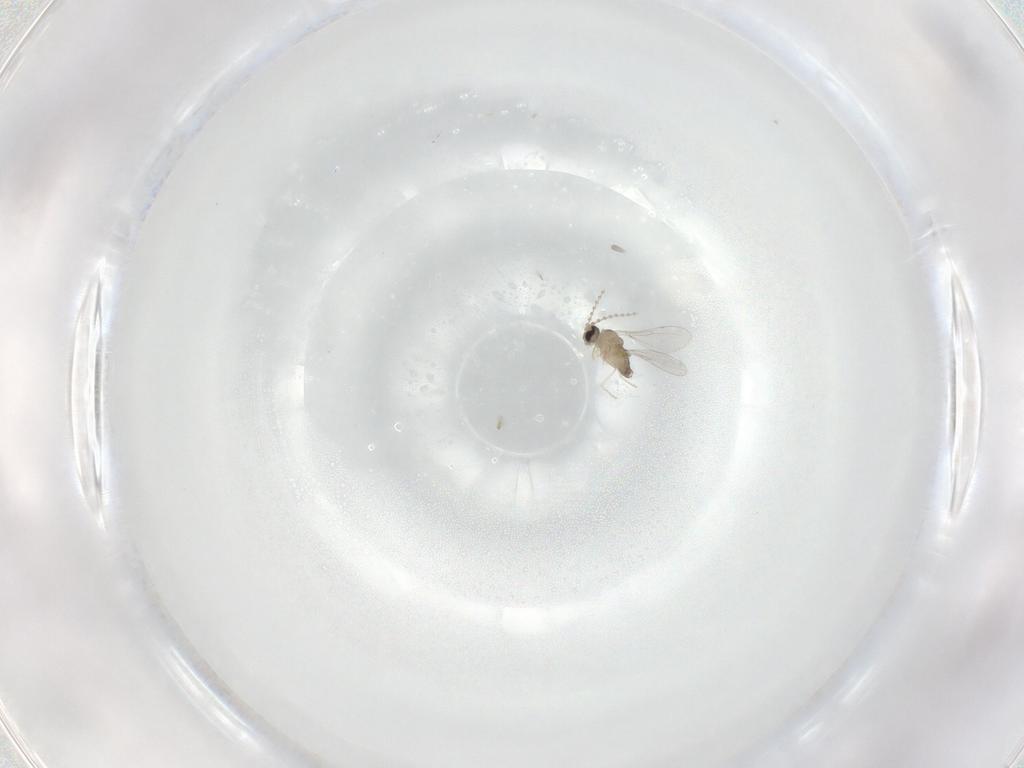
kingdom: Animalia
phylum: Arthropoda
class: Insecta
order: Diptera
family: Cecidomyiidae
